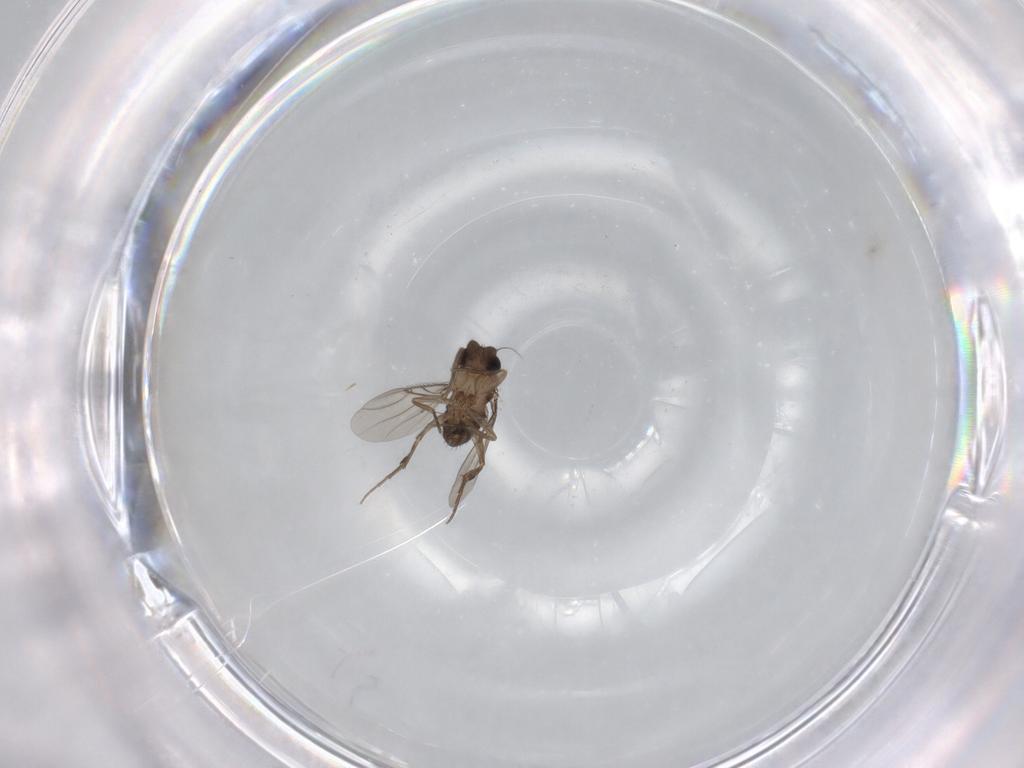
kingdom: Animalia
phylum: Arthropoda
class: Insecta
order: Diptera
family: Phoridae
